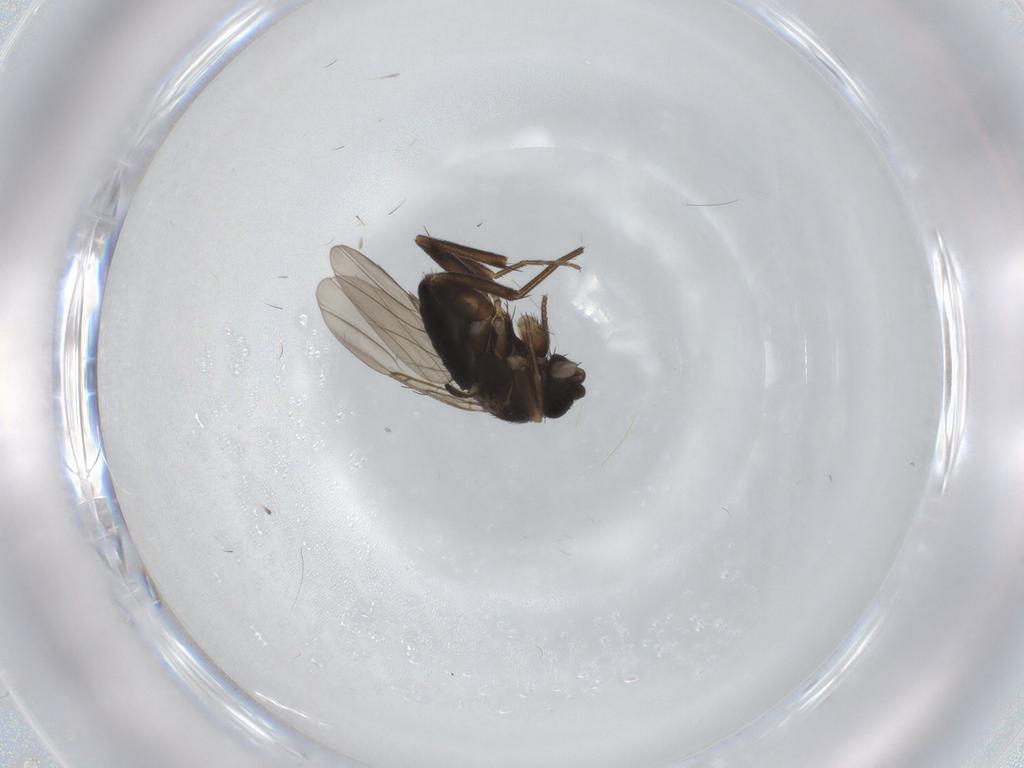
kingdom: Animalia
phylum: Arthropoda
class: Insecta
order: Diptera
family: Phoridae
